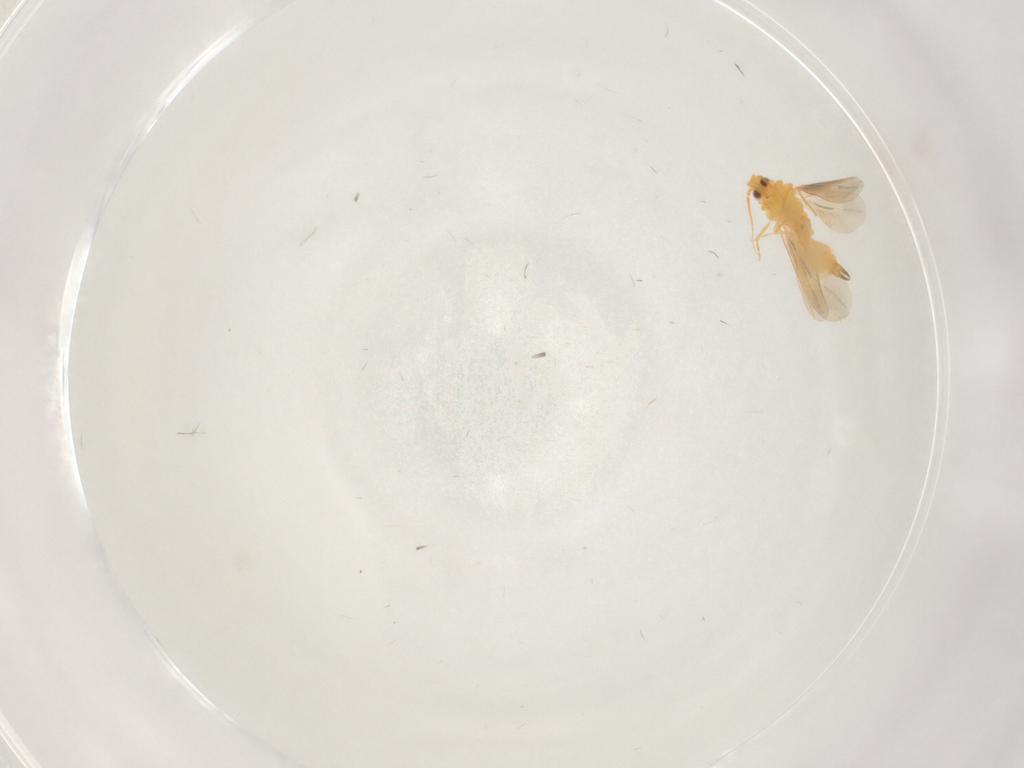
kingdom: Animalia
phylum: Arthropoda
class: Insecta
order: Hemiptera
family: Aleyrodidae
